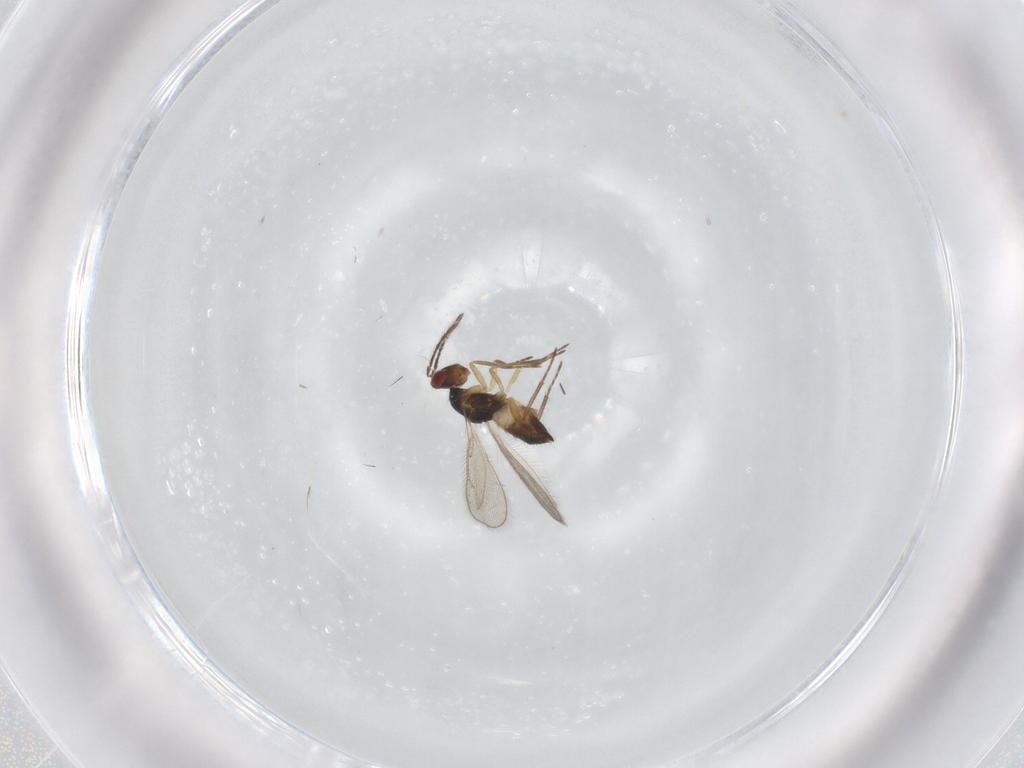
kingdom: Animalia
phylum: Arthropoda
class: Insecta
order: Hymenoptera
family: Eulophidae
